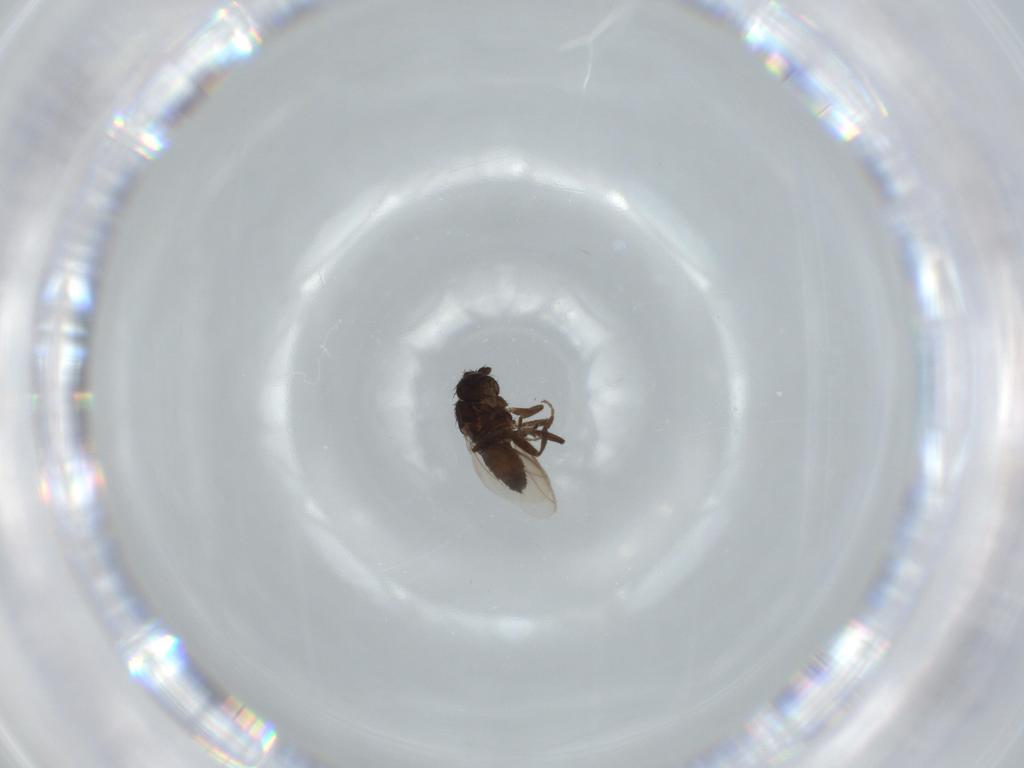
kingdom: Animalia
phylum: Arthropoda
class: Insecta
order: Diptera
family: Sphaeroceridae
